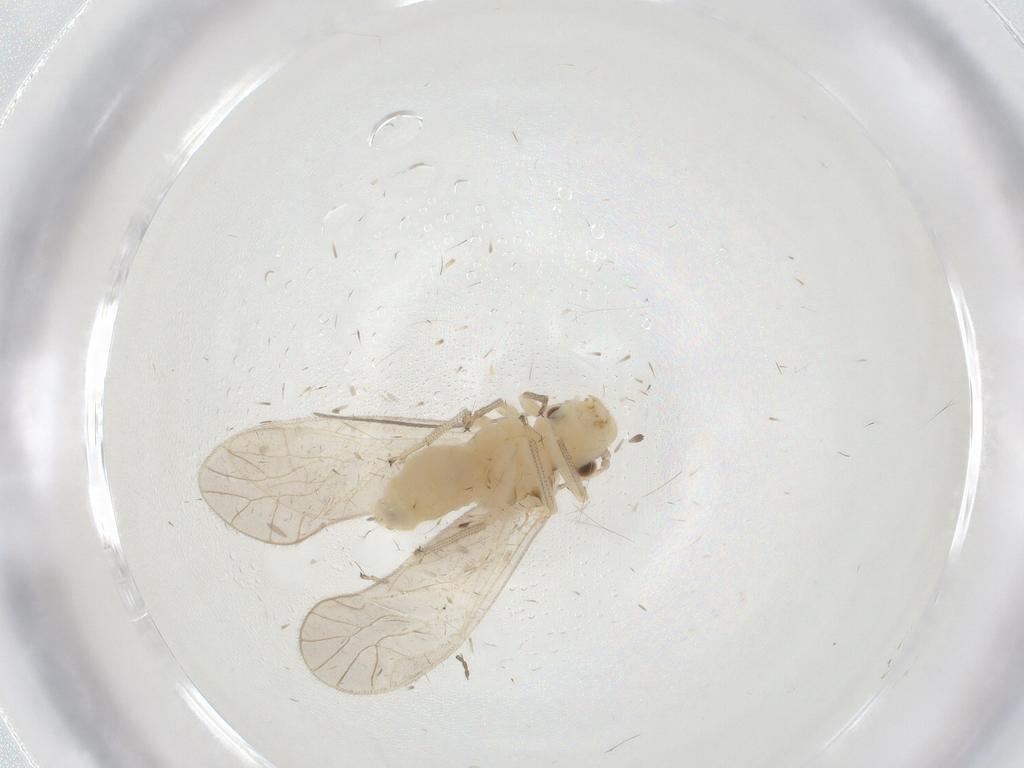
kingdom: Animalia
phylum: Arthropoda
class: Insecta
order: Psocodea
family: Caeciliusidae
